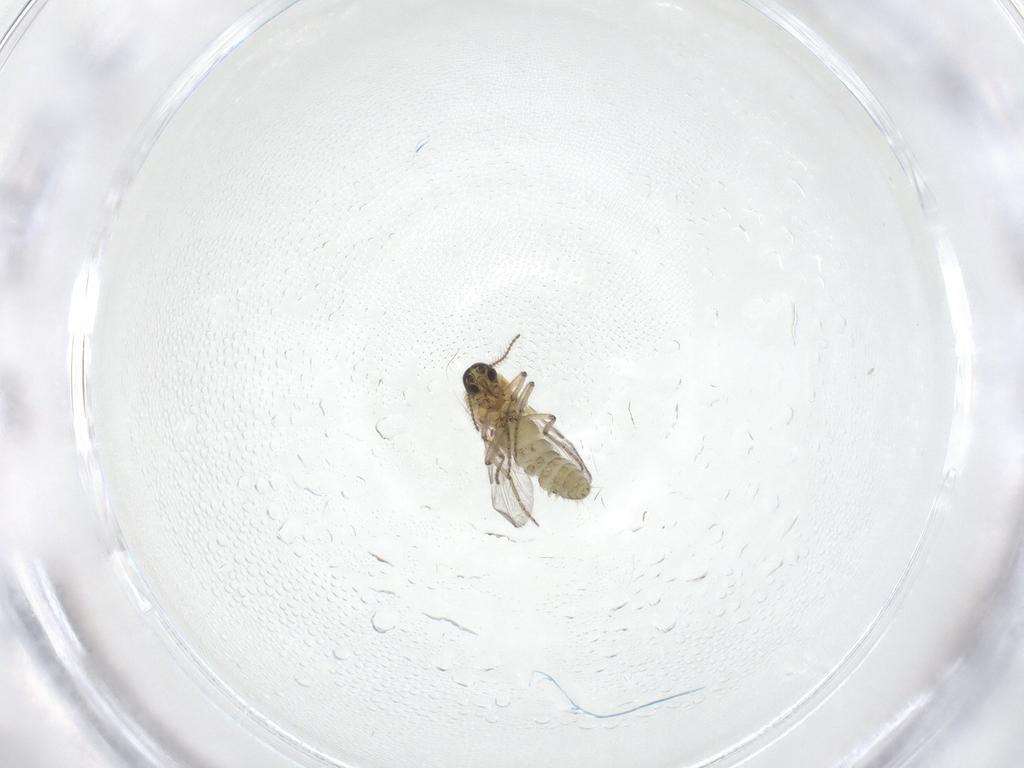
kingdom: Animalia
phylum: Arthropoda
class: Insecta
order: Diptera
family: Ceratopogonidae
